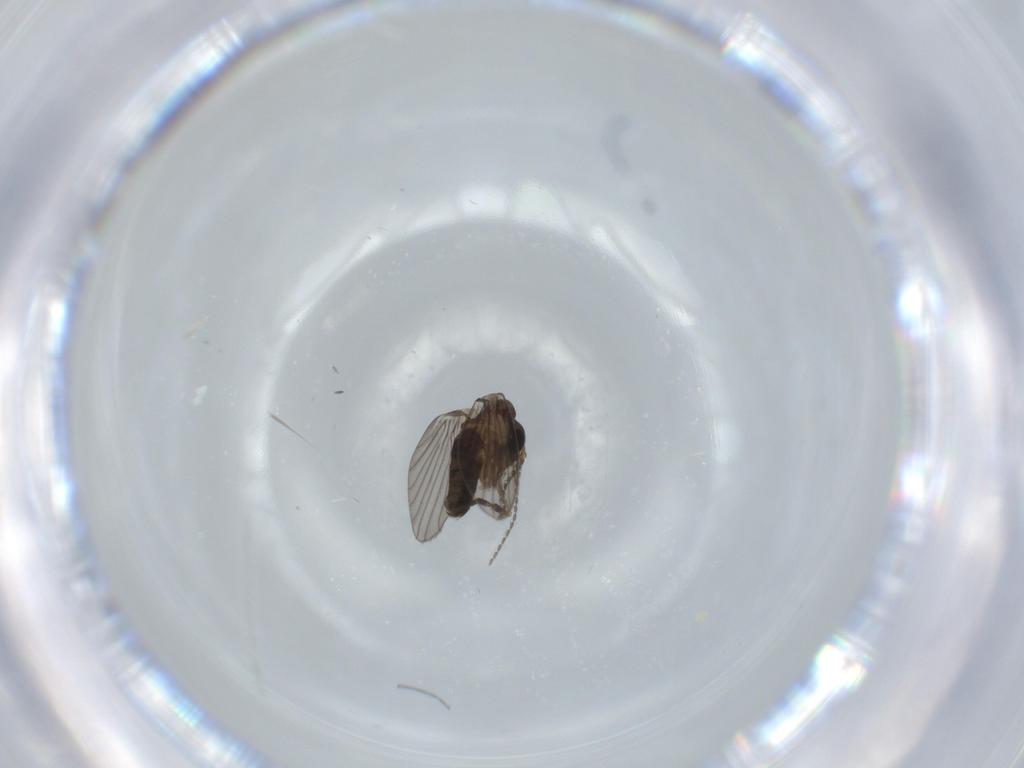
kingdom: Animalia
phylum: Arthropoda
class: Insecta
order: Diptera
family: Psychodidae
